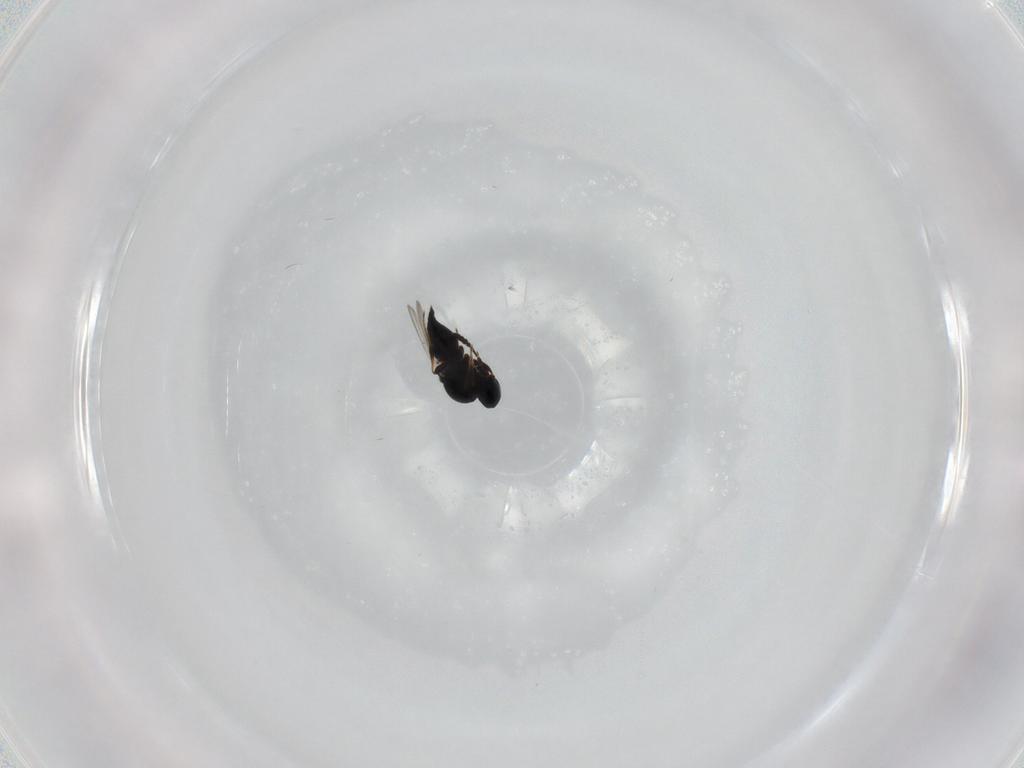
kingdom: Animalia
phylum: Arthropoda
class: Insecta
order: Hymenoptera
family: Platygastridae
